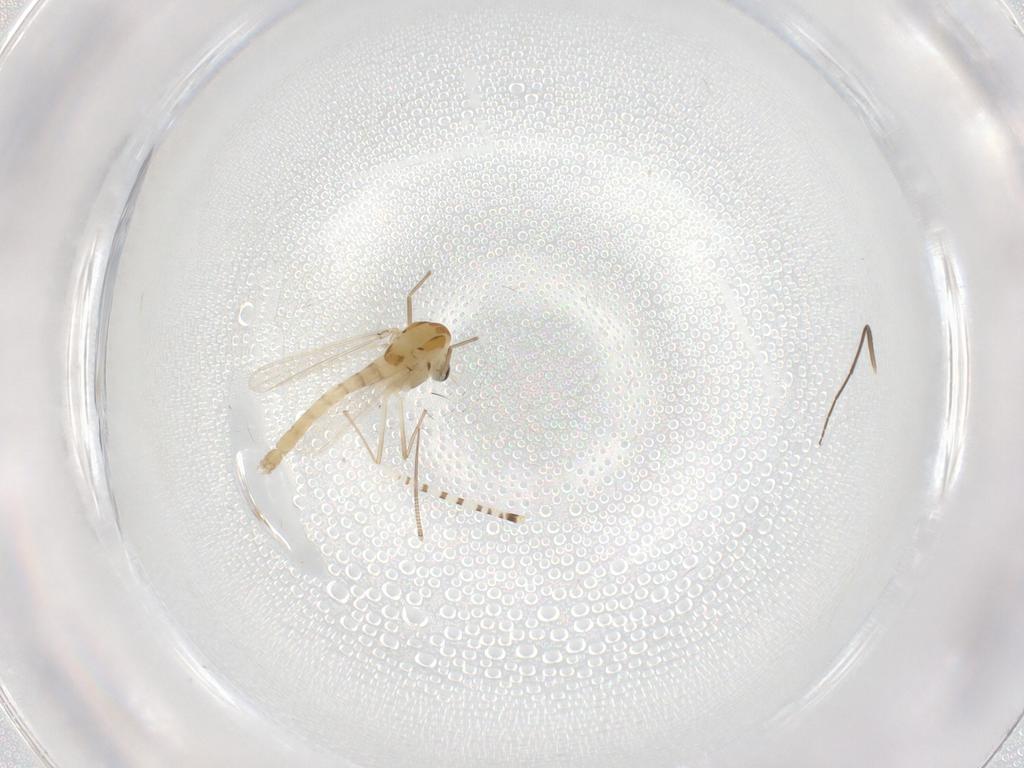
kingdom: Animalia
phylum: Arthropoda
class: Insecta
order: Diptera
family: Chironomidae
